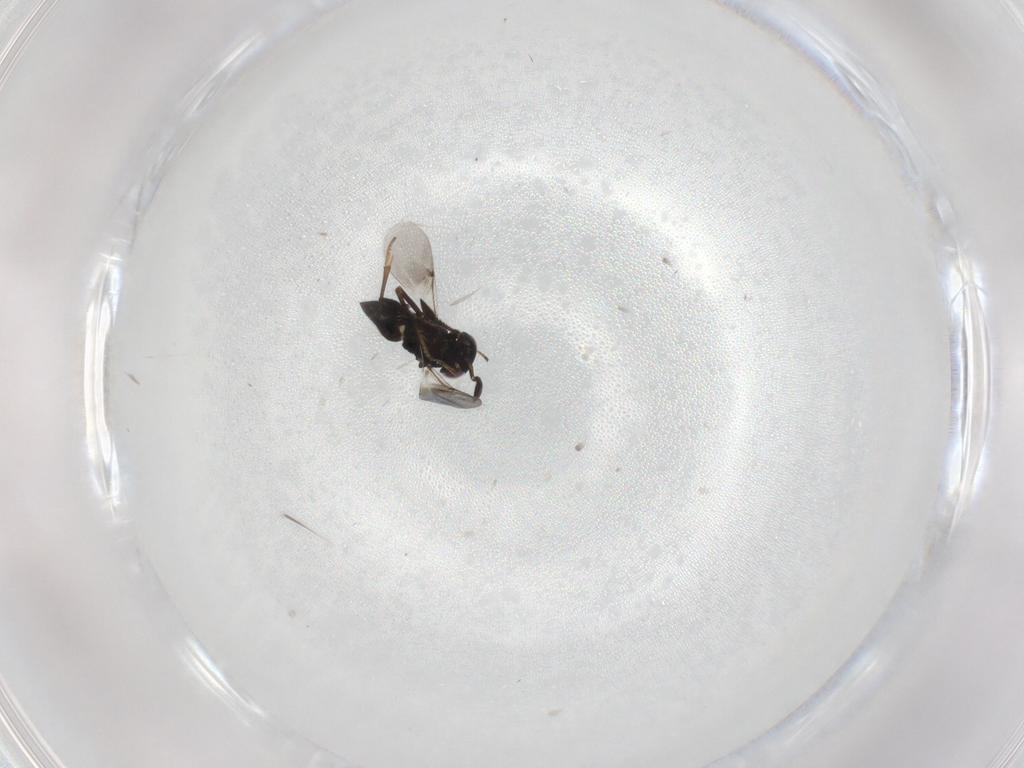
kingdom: Animalia
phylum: Arthropoda
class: Insecta
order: Hymenoptera
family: Encyrtidae
